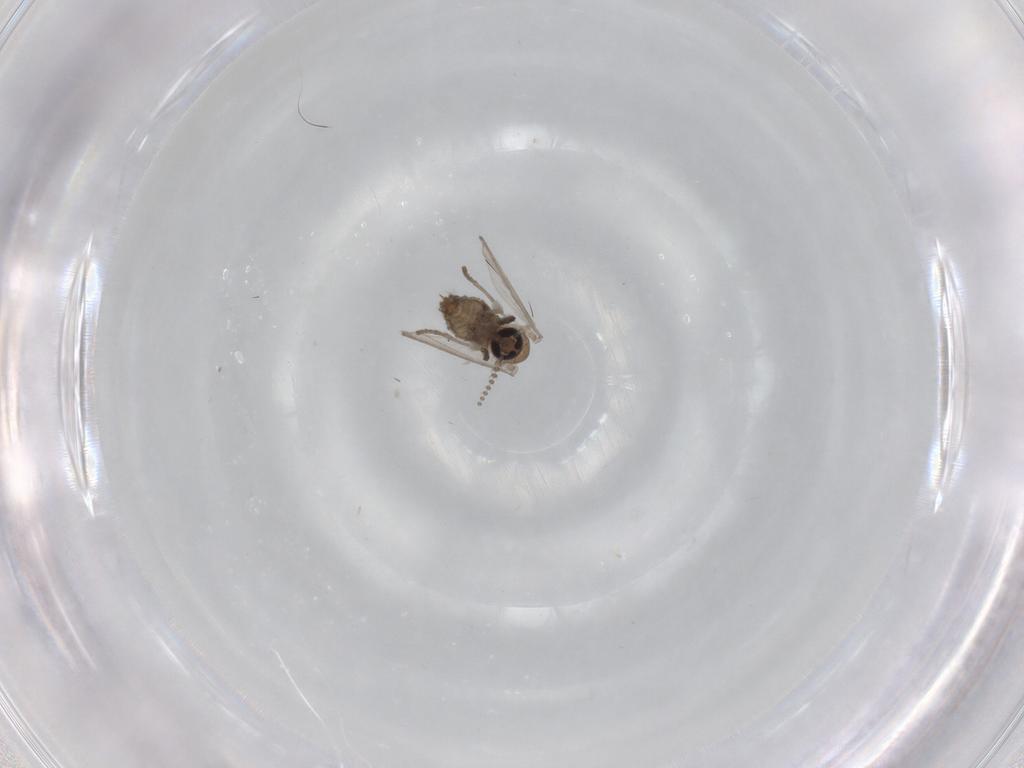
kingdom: Animalia
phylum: Arthropoda
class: Insecta
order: Diptera
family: Psychodidae
